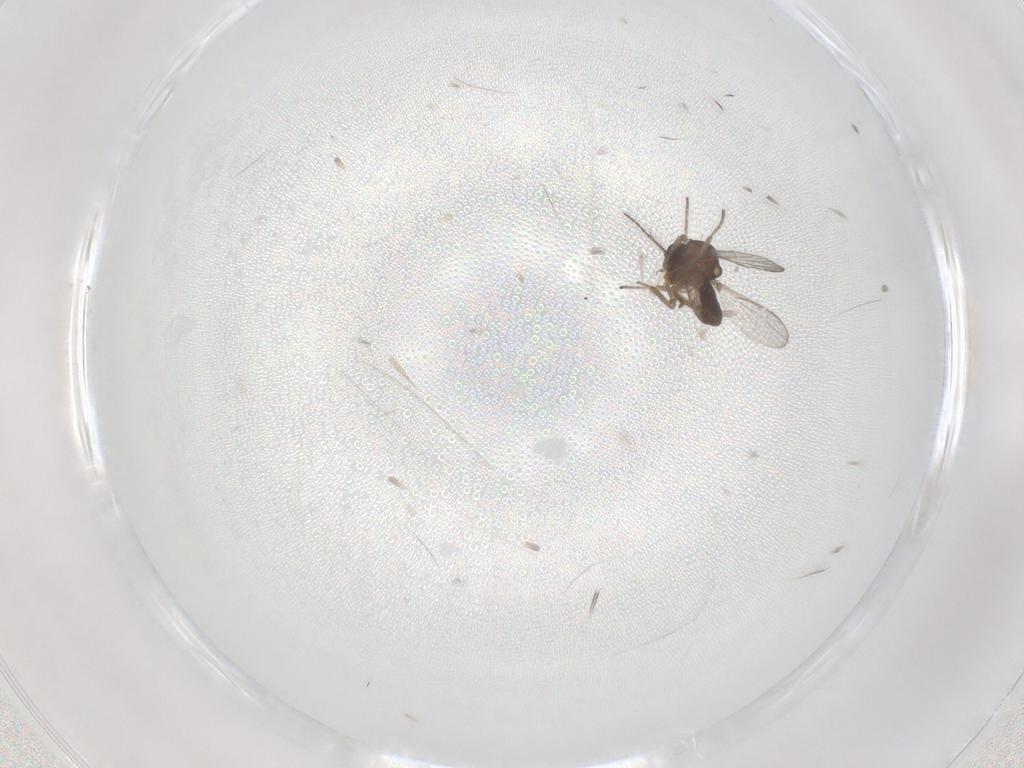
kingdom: Animalia
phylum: Arthropoda
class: Insecta
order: Diptera
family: Ceratopogonidae
